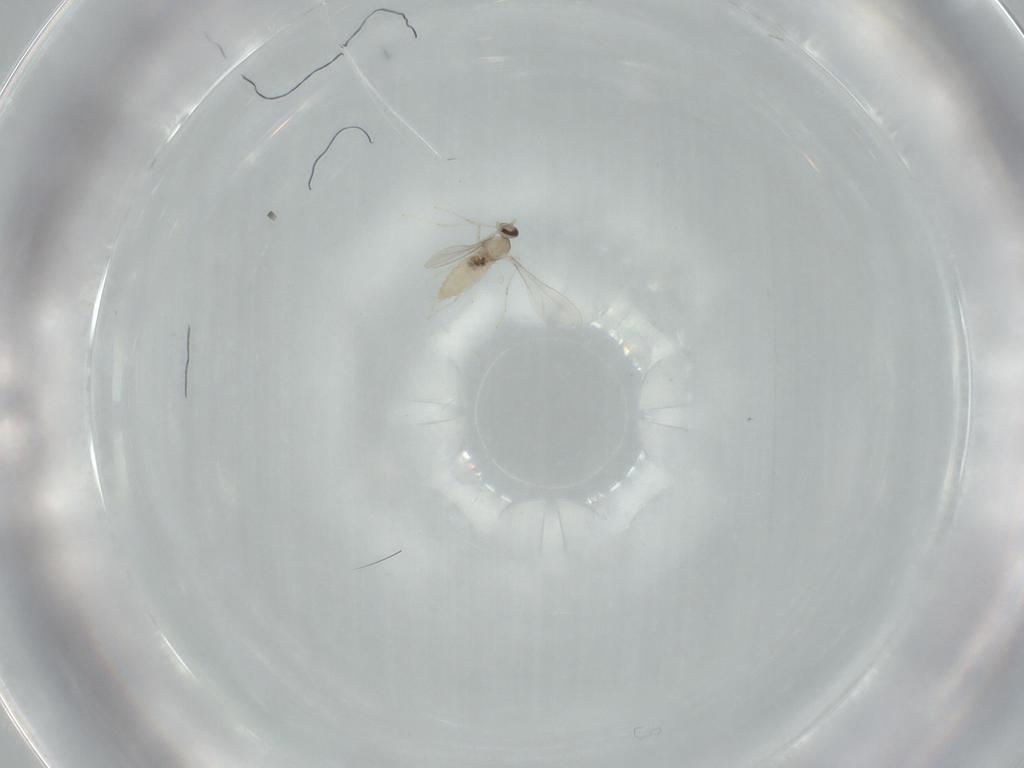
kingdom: Animalia
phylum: Arthropoda
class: Insecta
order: Diptera
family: Cecidomyiidae
